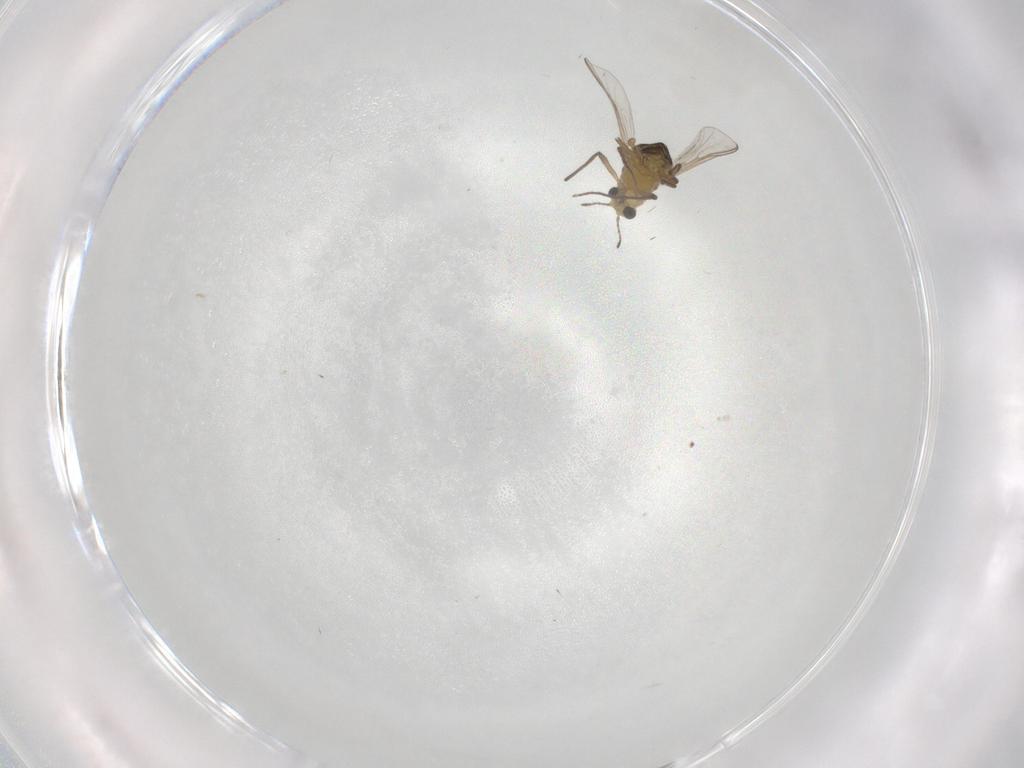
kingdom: Animalia
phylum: Arthropoda
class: Insecta
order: Diptera
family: Chironomidae
